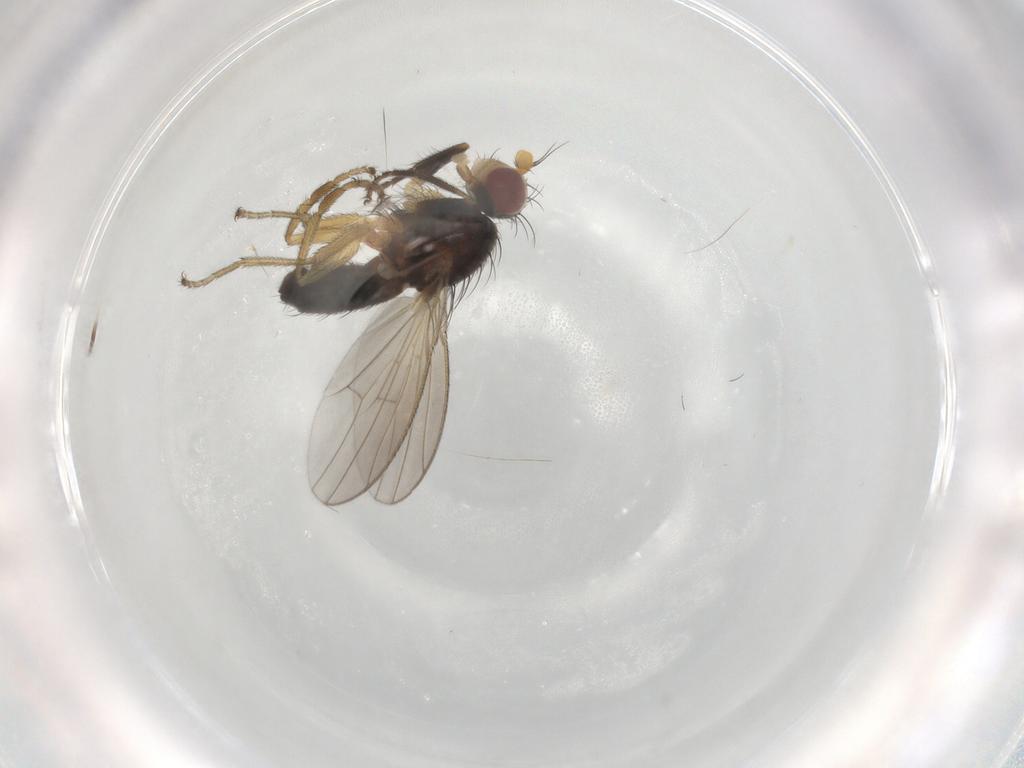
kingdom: Animalia
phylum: Arthropoda
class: Insecta
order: Diptera
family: Heleomyzidae
